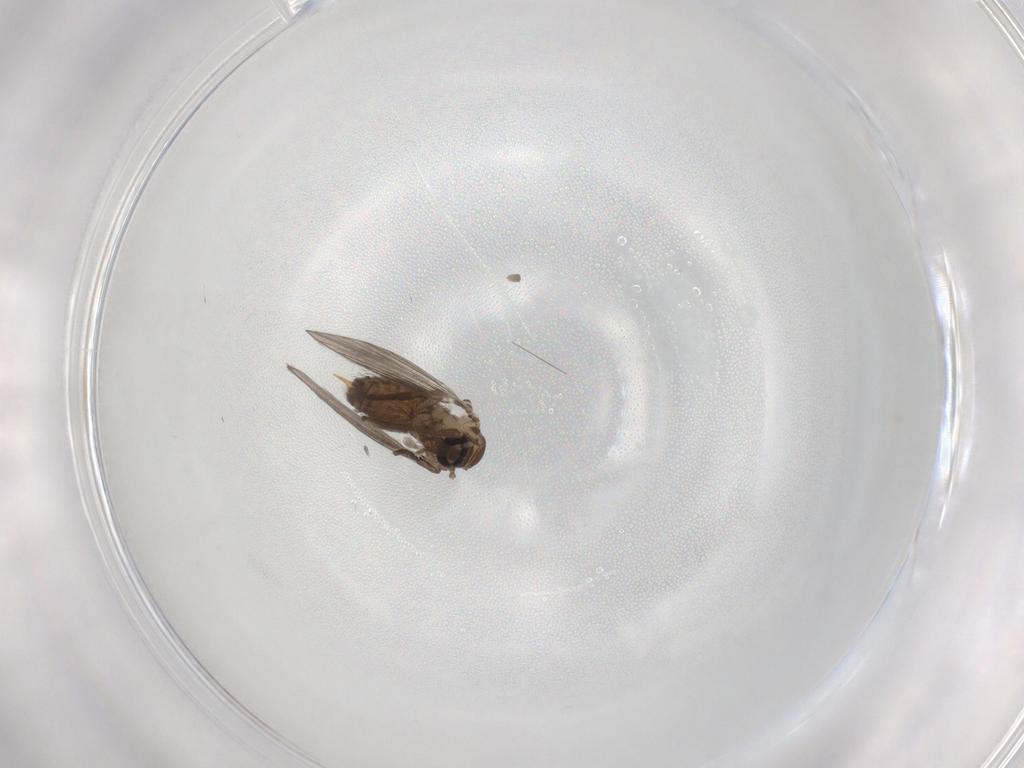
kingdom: Animalia
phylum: Arthropoda
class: Insecta
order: Diptera
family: Psychodidae
